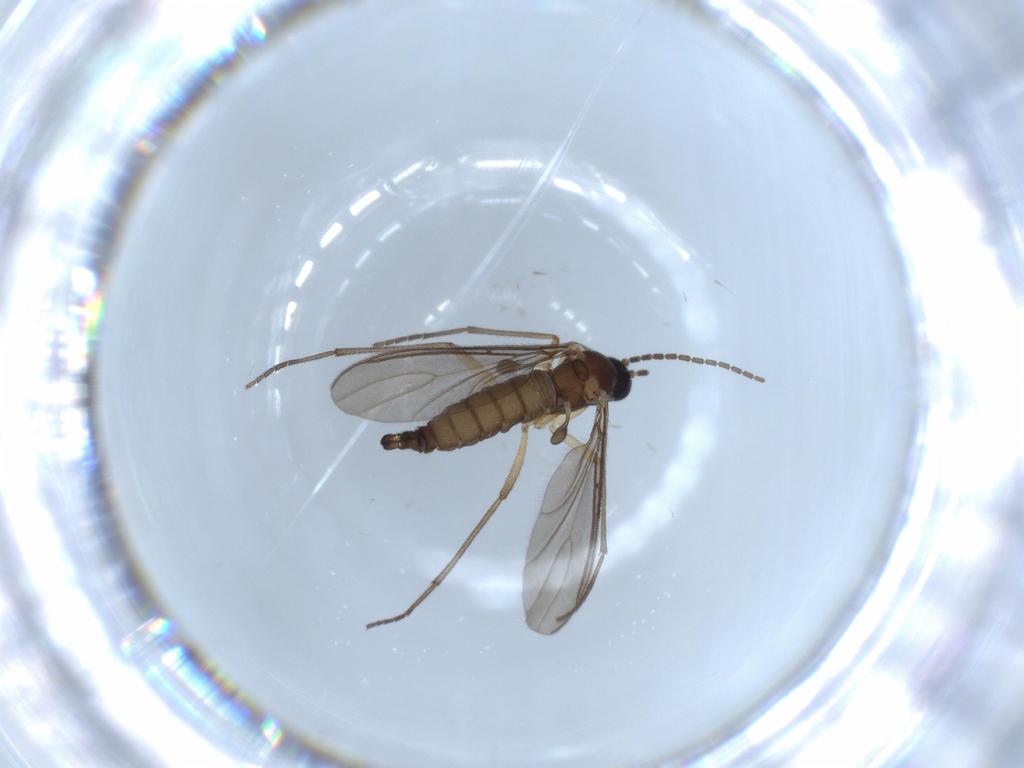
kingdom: Animalia
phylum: Arthropoda
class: Insecta
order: Diptera
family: Sciaridae
